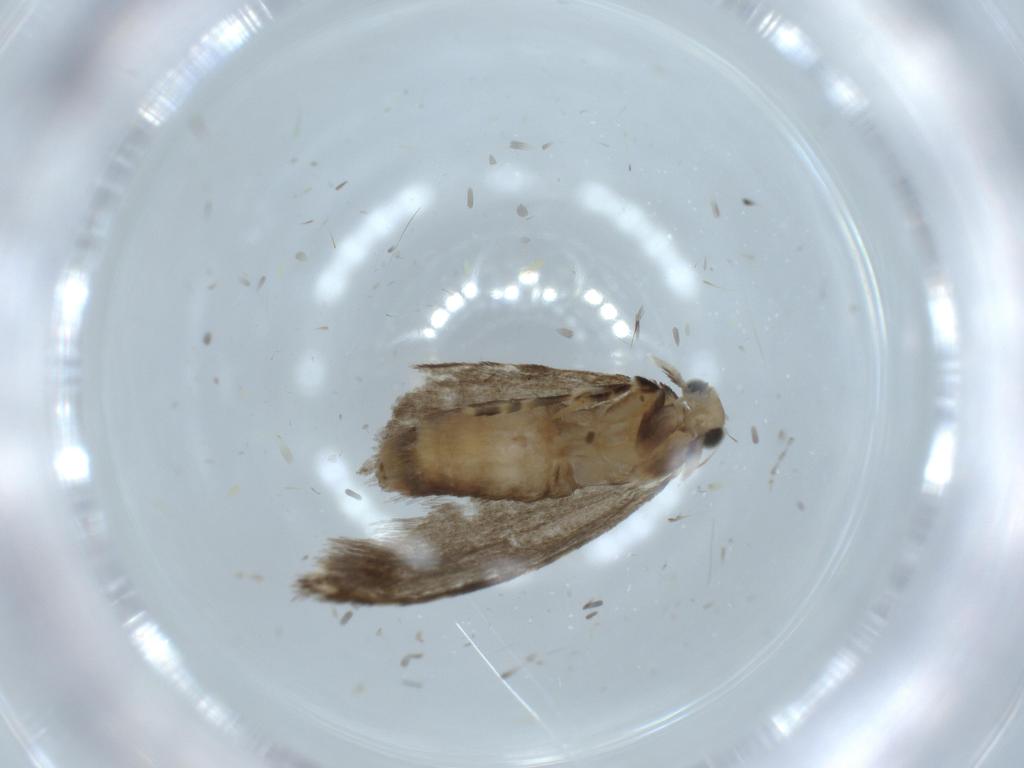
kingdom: Animalia
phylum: Arthropoda
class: Insecta
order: Lepidoptera
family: Tineidae
